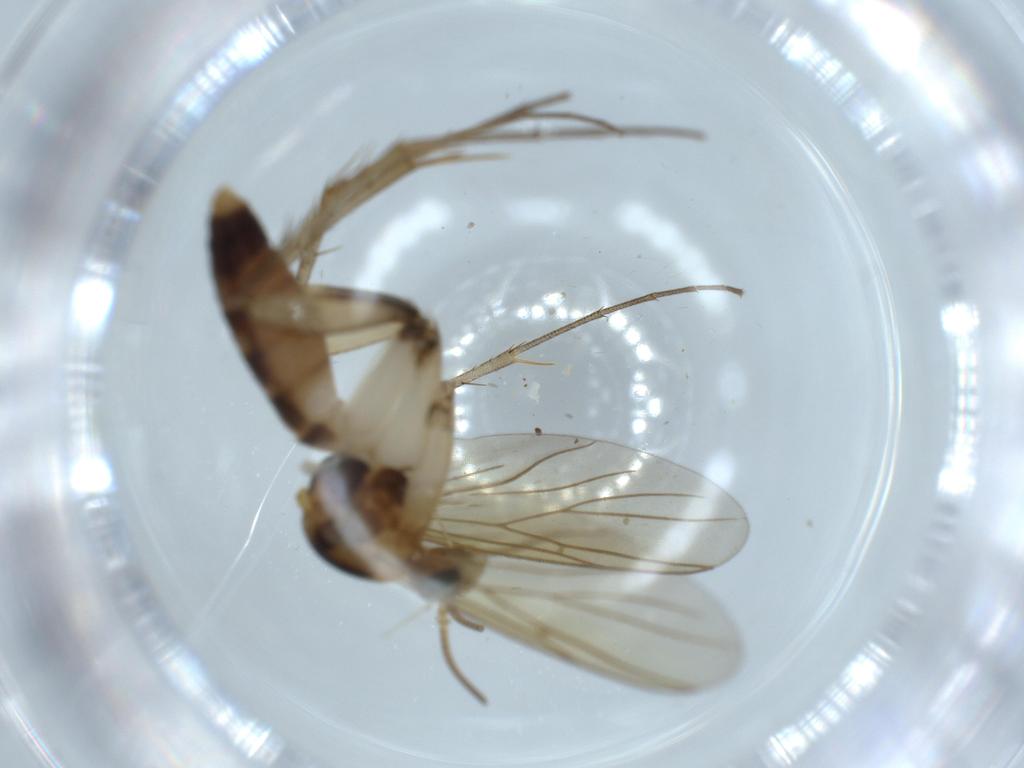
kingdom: Animalia
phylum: Arthropoda
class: Insecta
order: Diptera
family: Mycetophilidae
